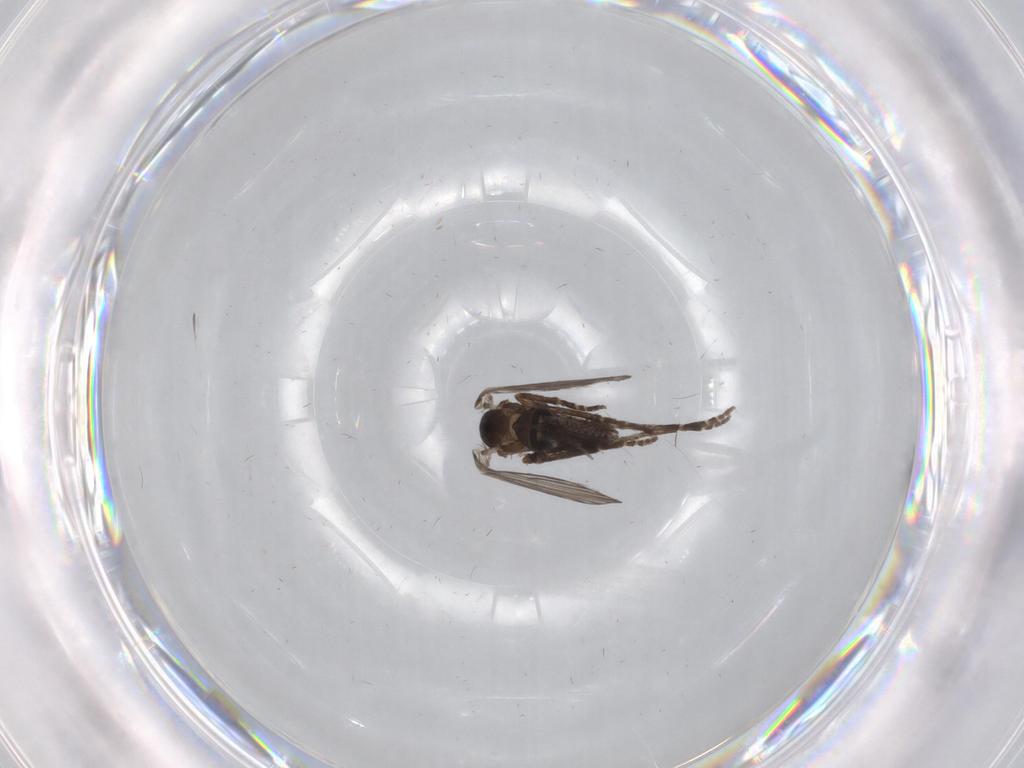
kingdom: Animalia
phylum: Arthropoda
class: Insecta
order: Diptera
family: Psychodidae
